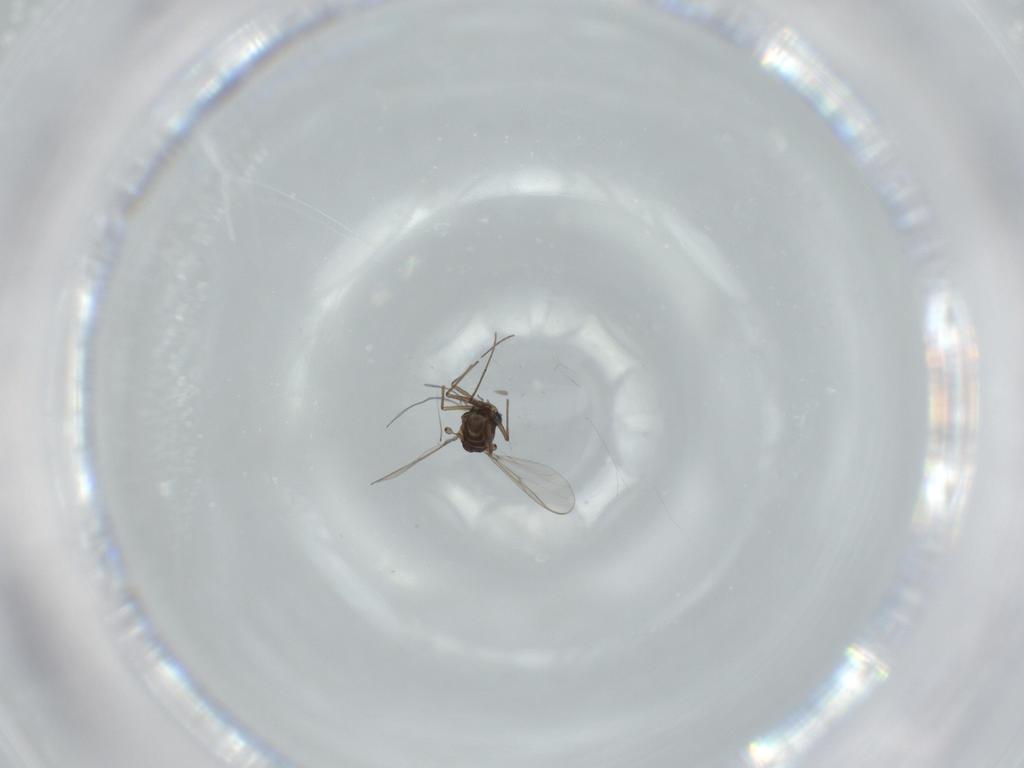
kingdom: Animalia
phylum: Arthropoda
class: Insecta
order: Diptera
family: Chironomidae
